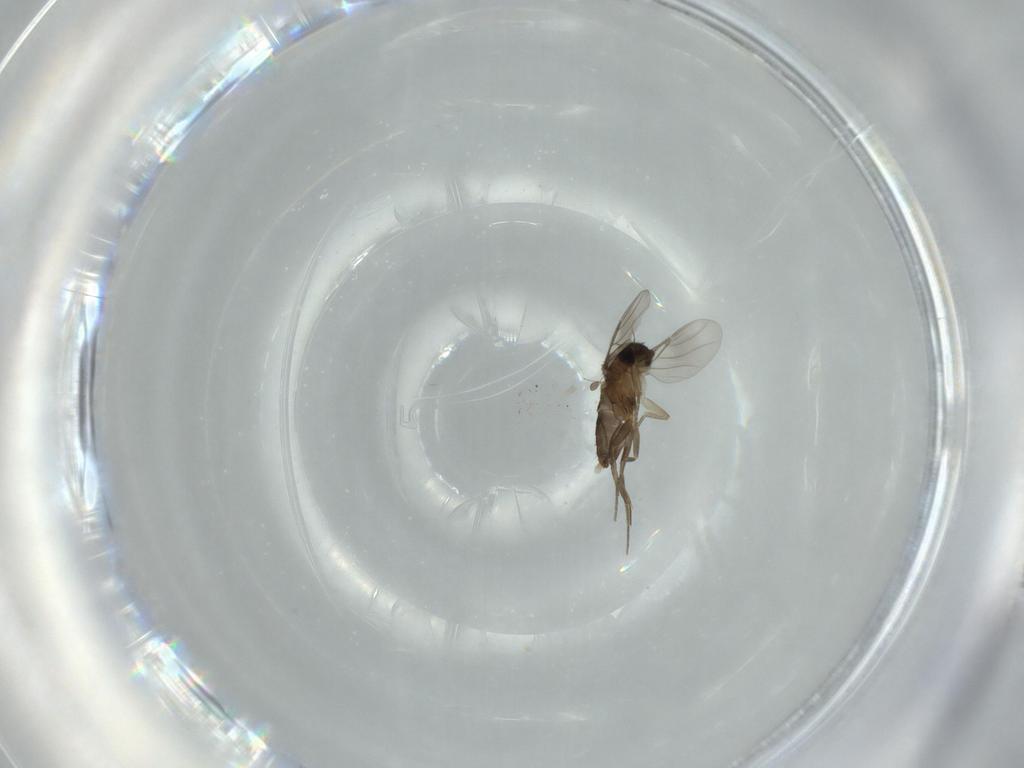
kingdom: Animalia
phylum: Arthropoda
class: Insecta
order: Diptera
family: Phoridae
